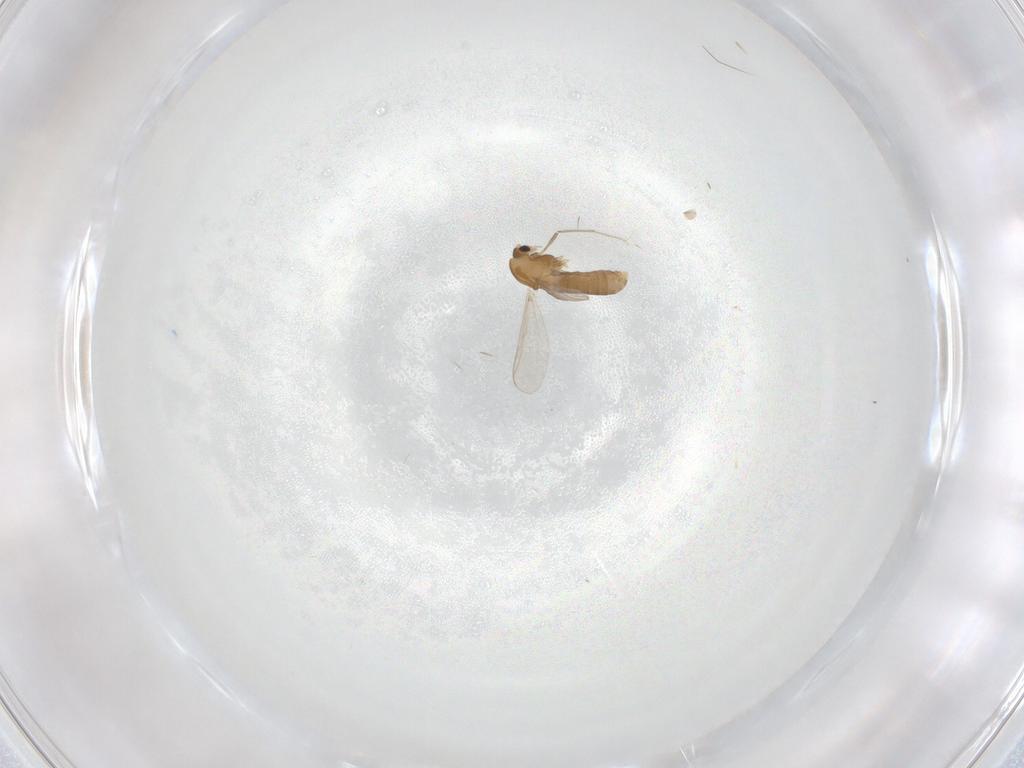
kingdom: Animalia
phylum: Arthropoda
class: Insecta
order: Diptera
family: Chironomidae
